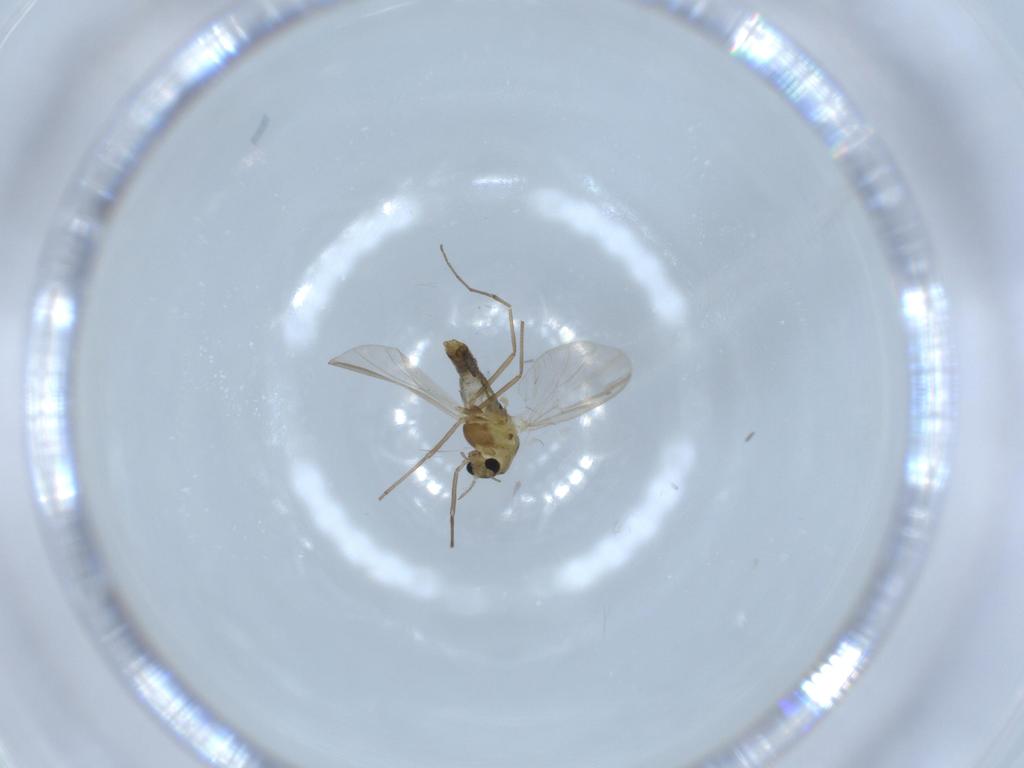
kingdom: Animalia
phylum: Arthropoda
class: Insecta
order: Diptera
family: Chironomidae
